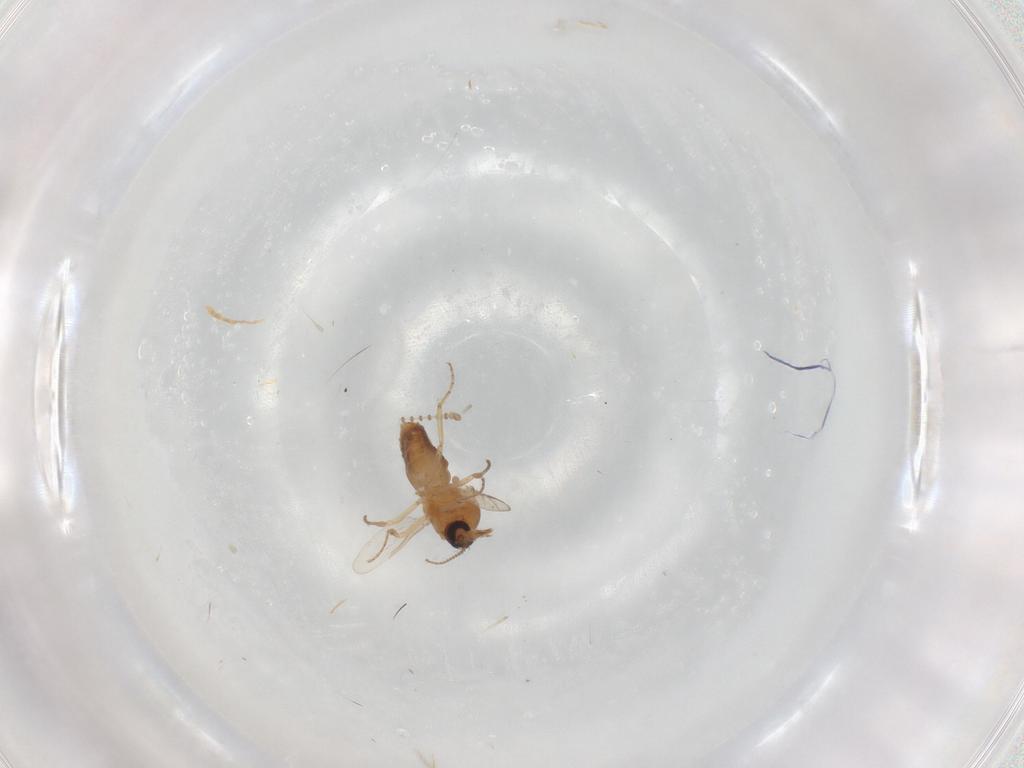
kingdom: Animalia
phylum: Arthropoda
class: Insecta
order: Diptera
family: Ceratopogonidae
